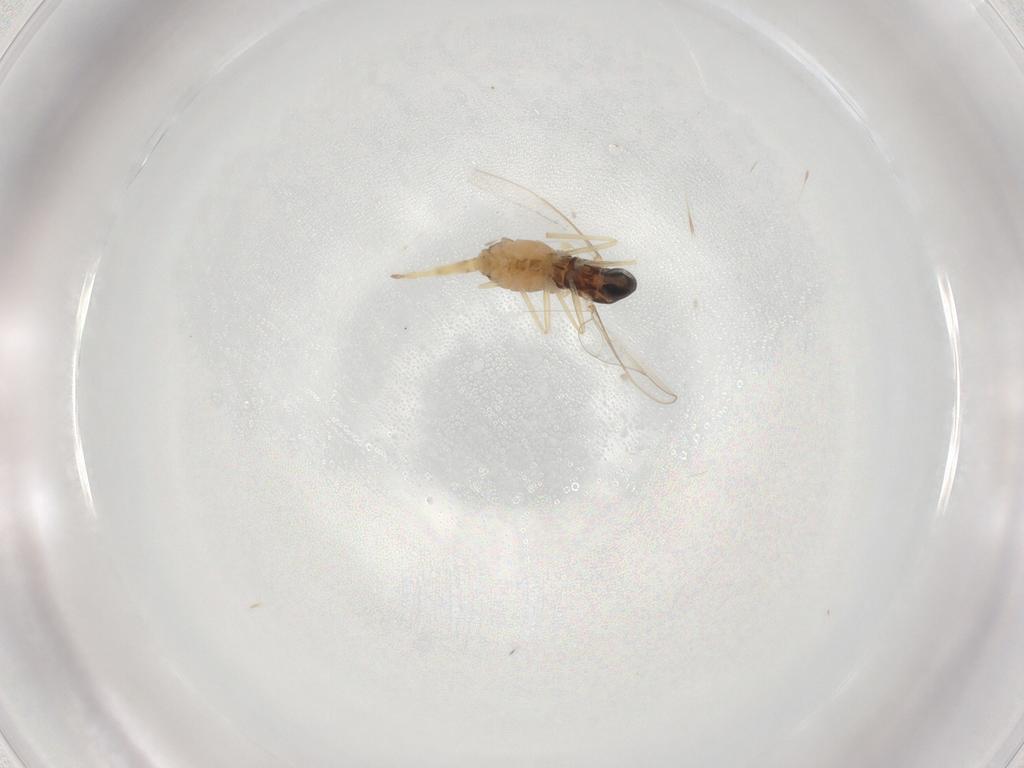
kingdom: Animalia
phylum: Arthropoda
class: Insecta
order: Diptera
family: Cecidomyiidae
